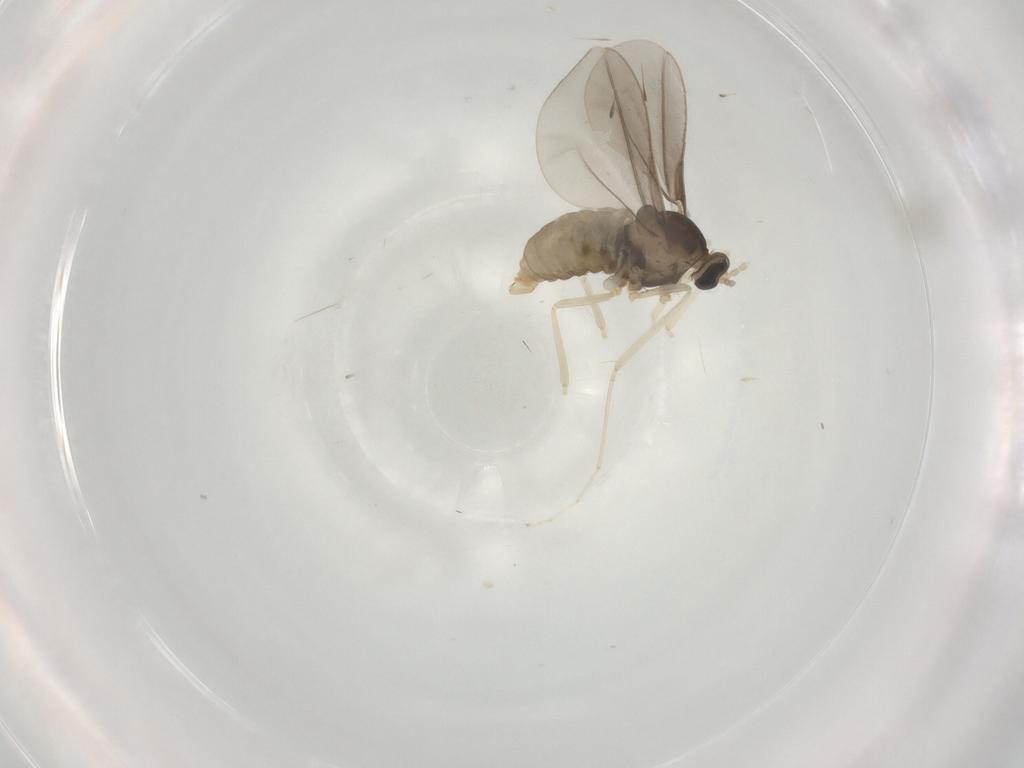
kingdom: Animalia
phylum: Arthropoda
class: Insecta
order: Diptera
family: Cecidomyiidae
